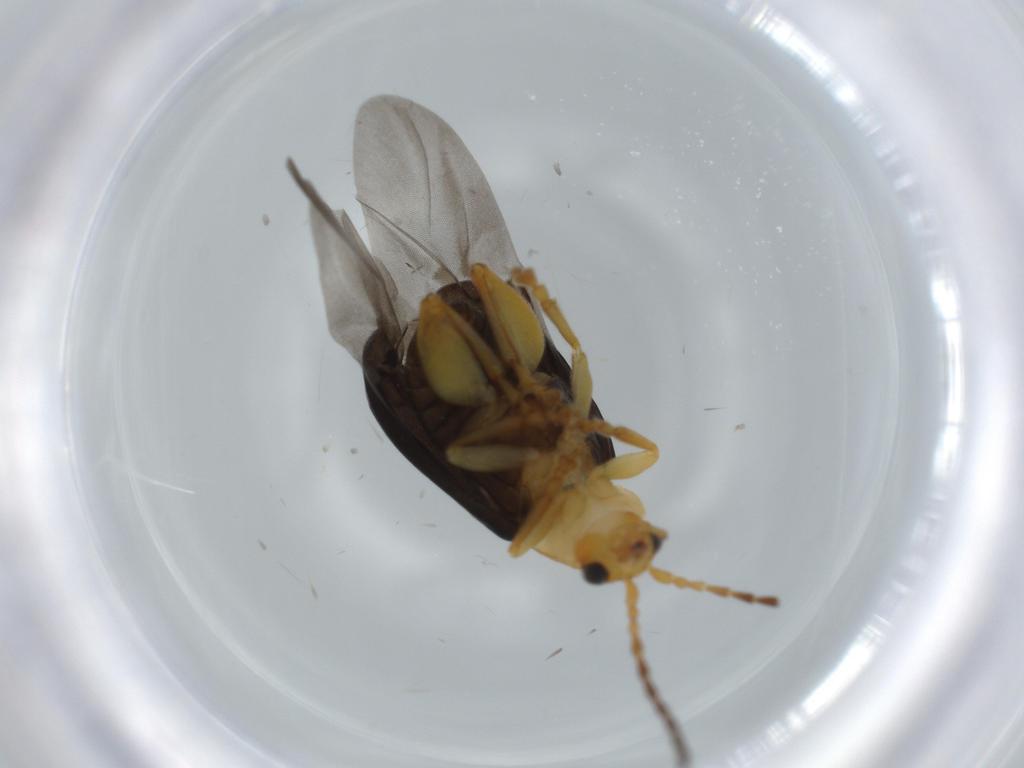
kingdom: Animalia
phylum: Arthropoda
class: Insecta
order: Coleoptera
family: Chrysomelidae
